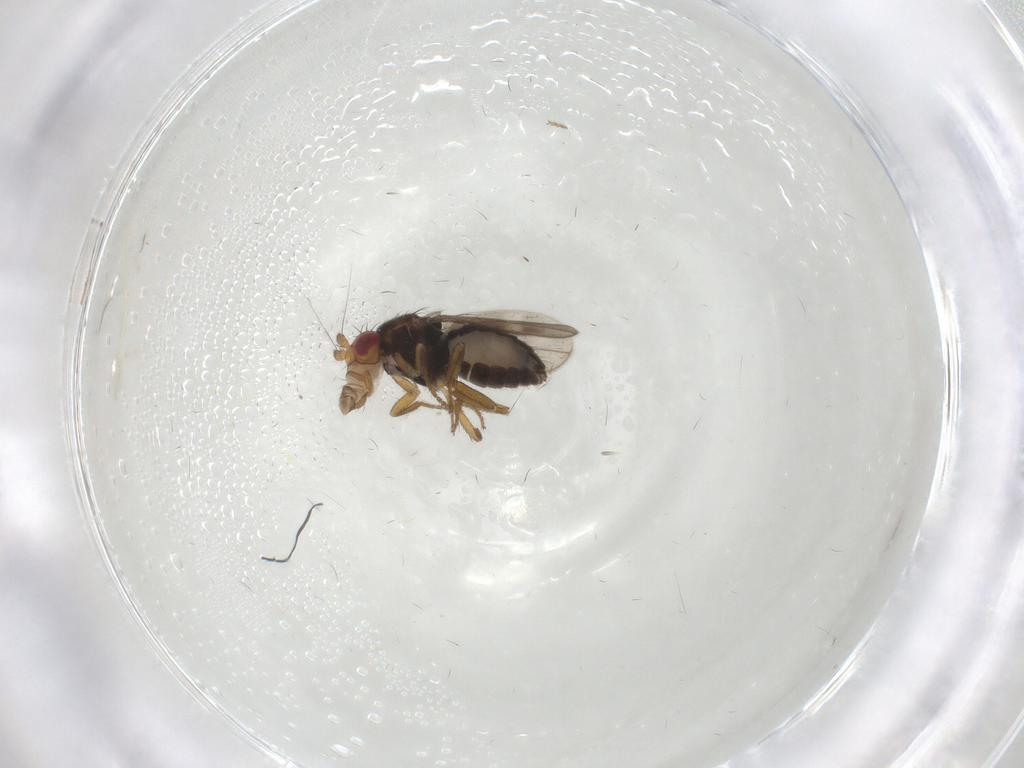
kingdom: Animalia
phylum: Arthropoda
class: Insecta
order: Diptera
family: Sphaeroceridae
